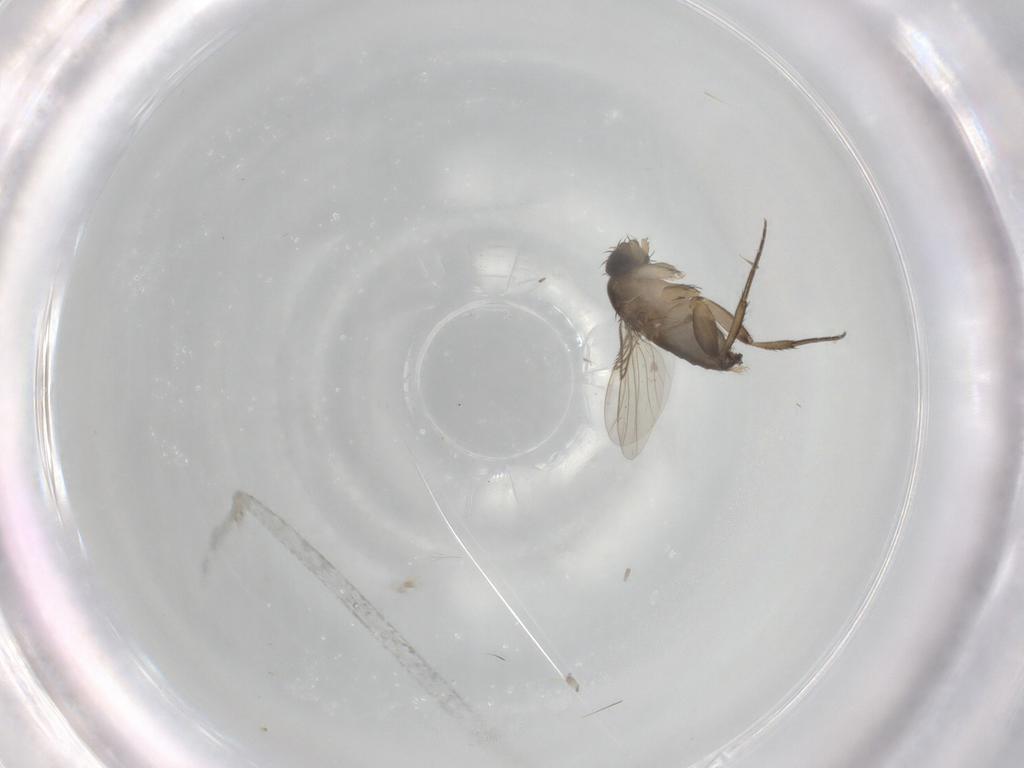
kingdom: Animalia
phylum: Arthropoda
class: Insecta
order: Diptera
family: Phoridae
